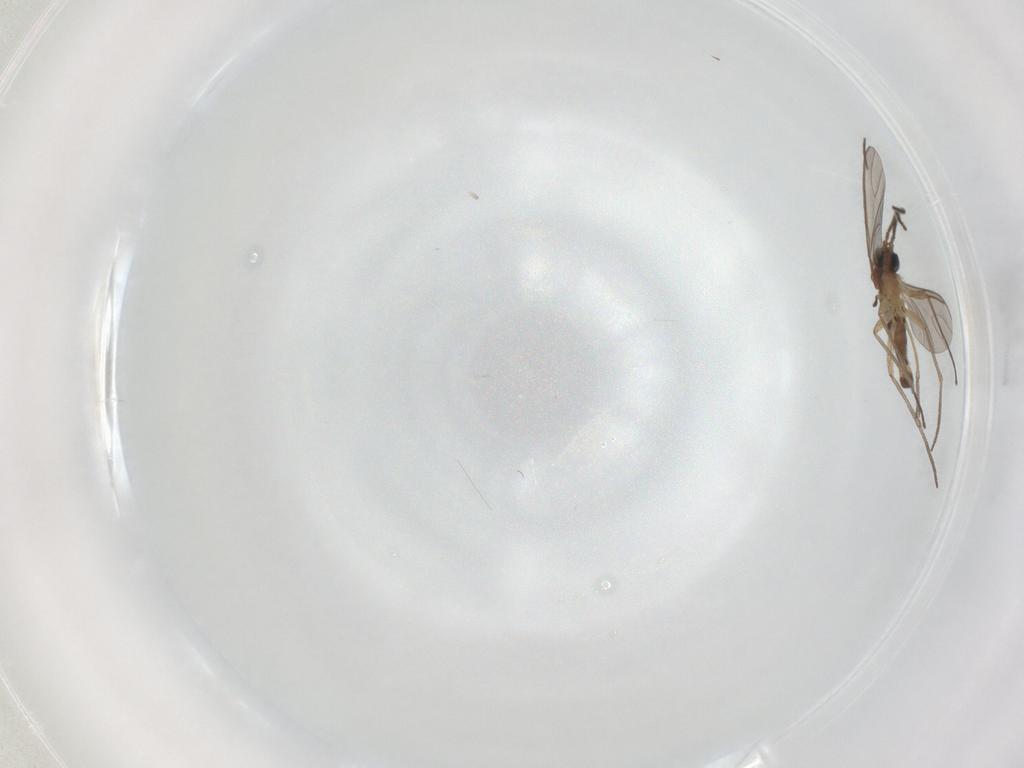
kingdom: Animalia
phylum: Arthropoda
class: Insecta
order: Diptera
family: Sciaridae
